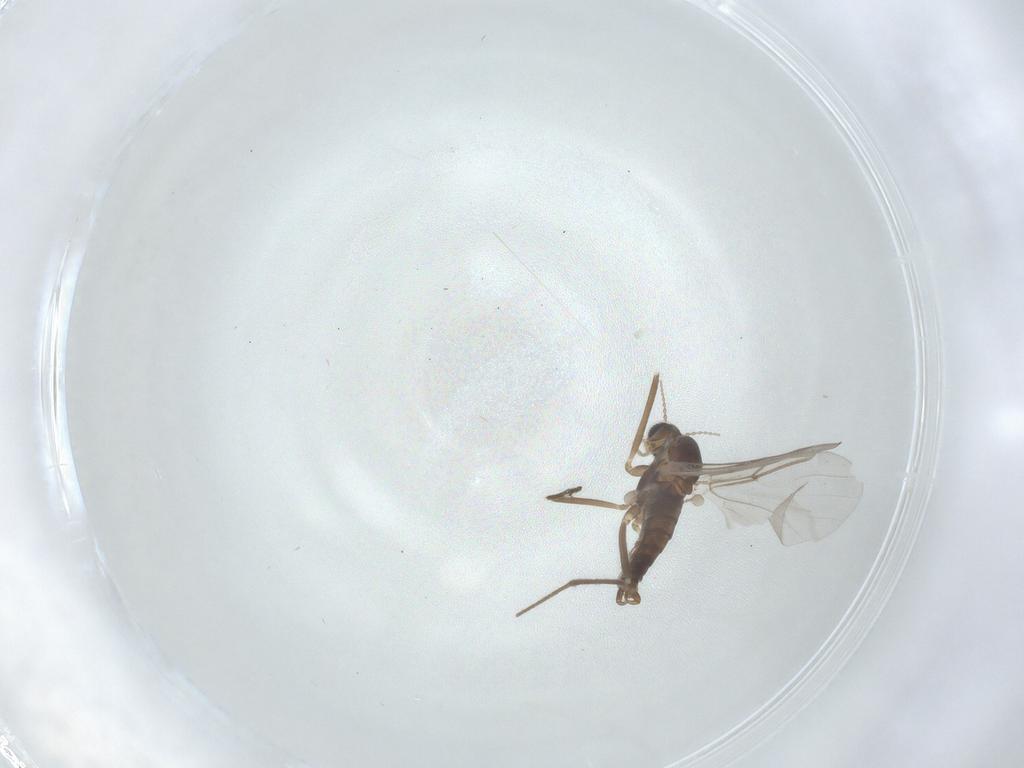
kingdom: Animalia
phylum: Arthropoda
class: Insecta
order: Diptera
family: Cecidomyiidae
